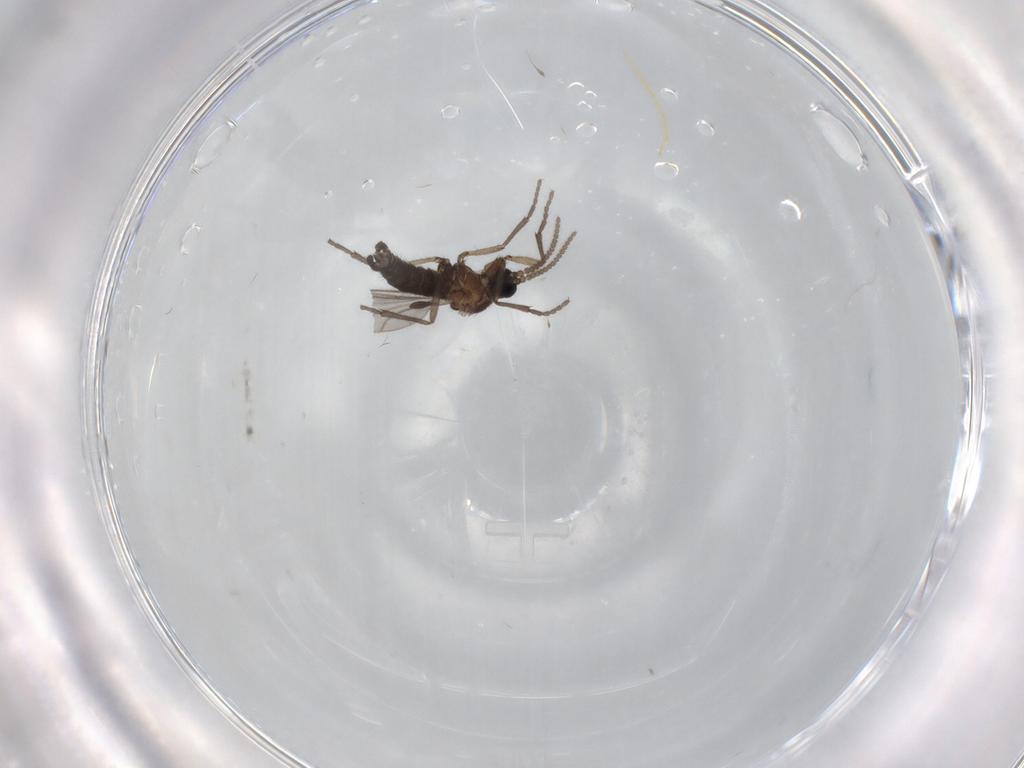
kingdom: Animalia
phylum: Arthropoda
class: Insecta
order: Diptera
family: Sciaridae
